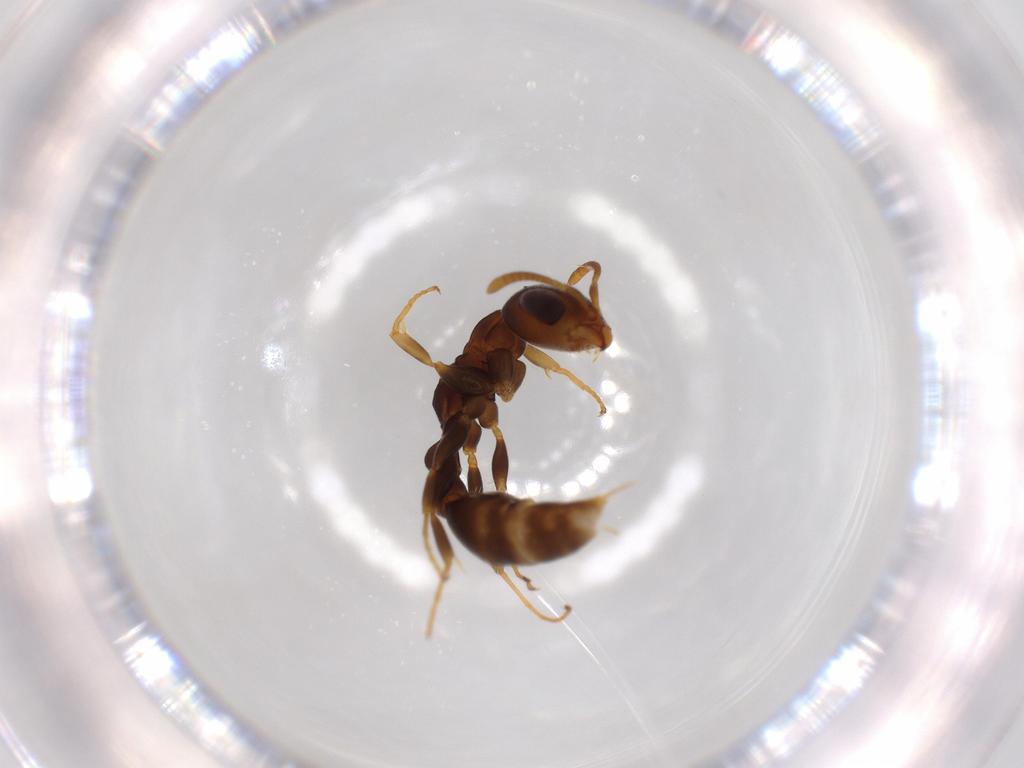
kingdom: Animalia
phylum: Arthropoda
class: Insecta
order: Hymenoptera
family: Formicidae
